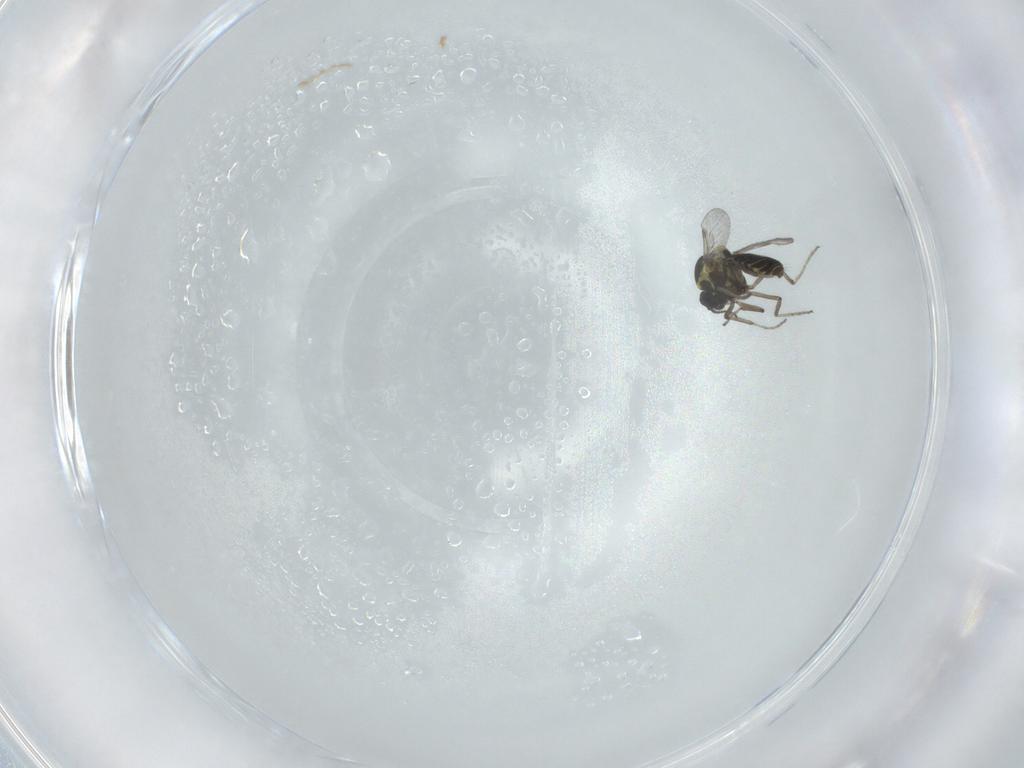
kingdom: Animalia
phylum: Arthropoda
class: Insecta
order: Diptera
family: Ceratopogonidae
